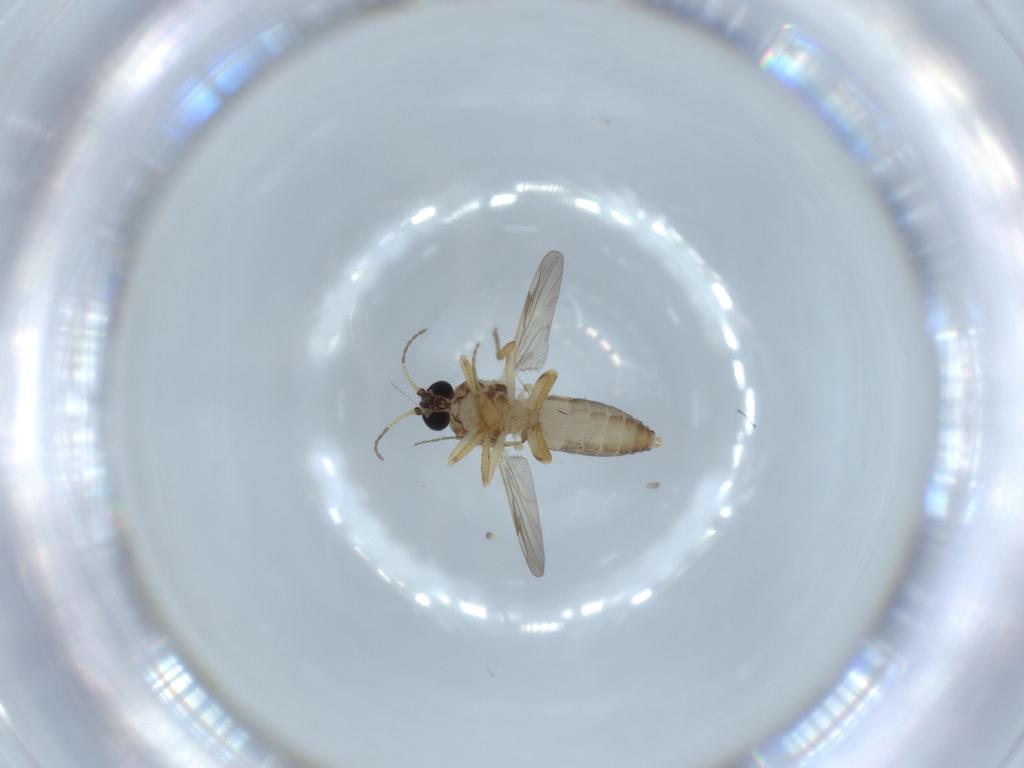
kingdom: Animalia
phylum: Arthropoda
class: Insecta
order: Diptera
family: Ceratopogonidae
